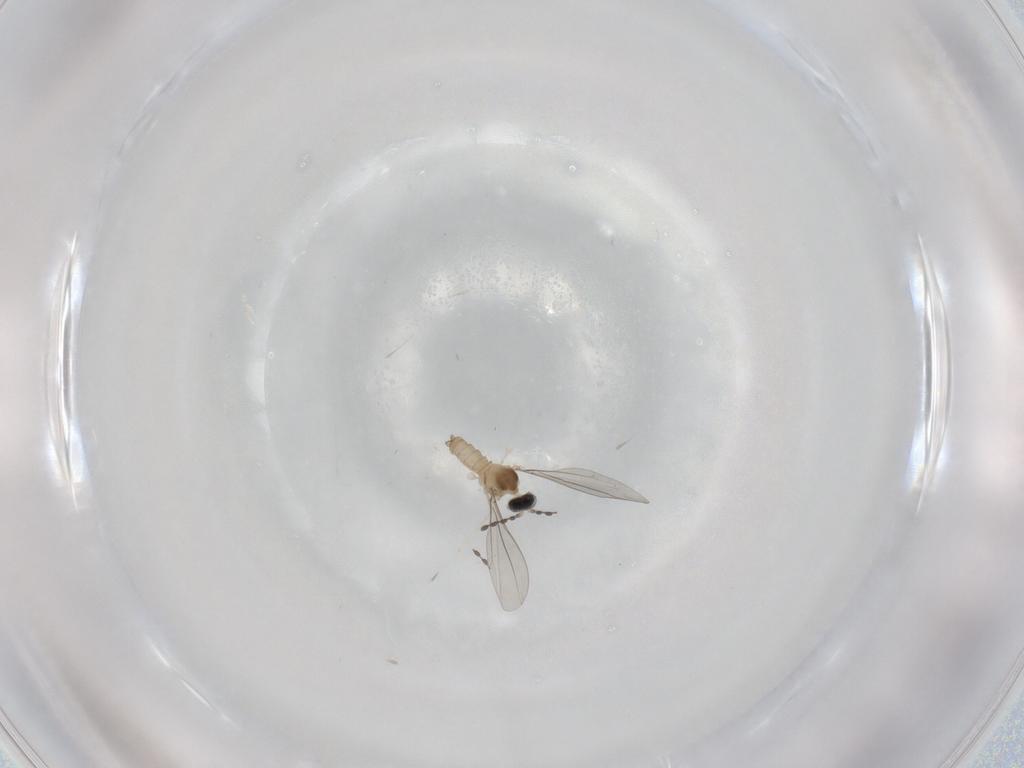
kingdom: Animalia
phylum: Arthropoda
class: Insecta
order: Diptera
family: Cecidomyiidae
